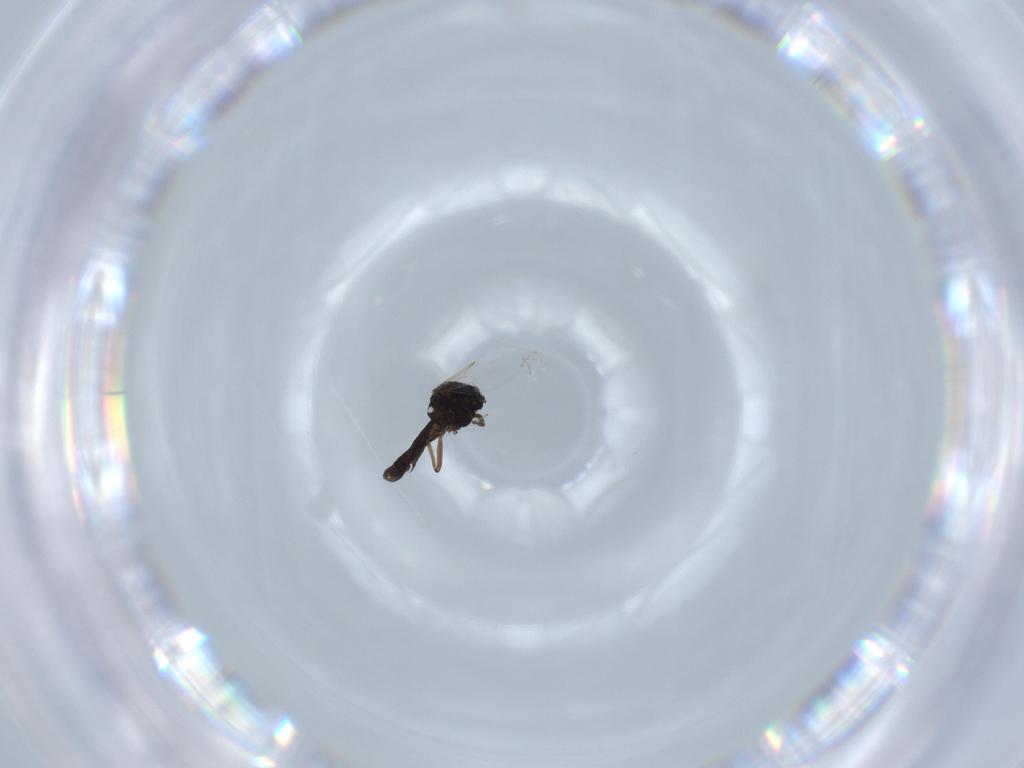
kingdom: Animalia
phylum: Arthropoda
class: Insecta
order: Diptera
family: Ceratopogonidae
